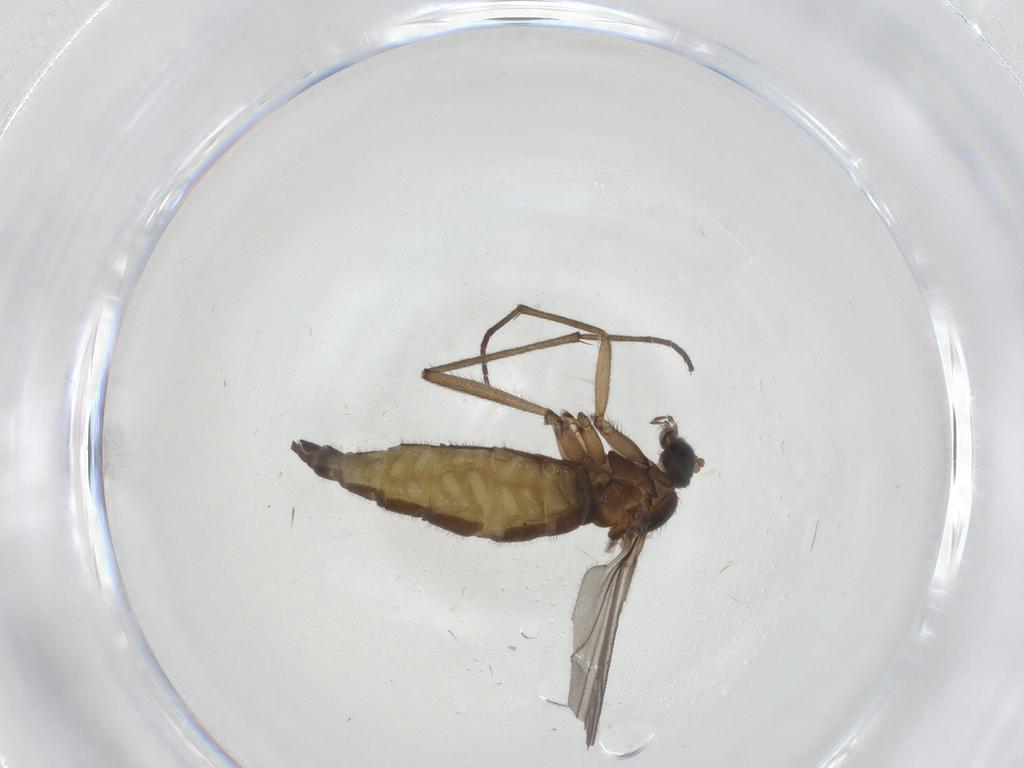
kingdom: Animalia
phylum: Arthropoda
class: Insecta
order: Diptera
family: Sciaridae
